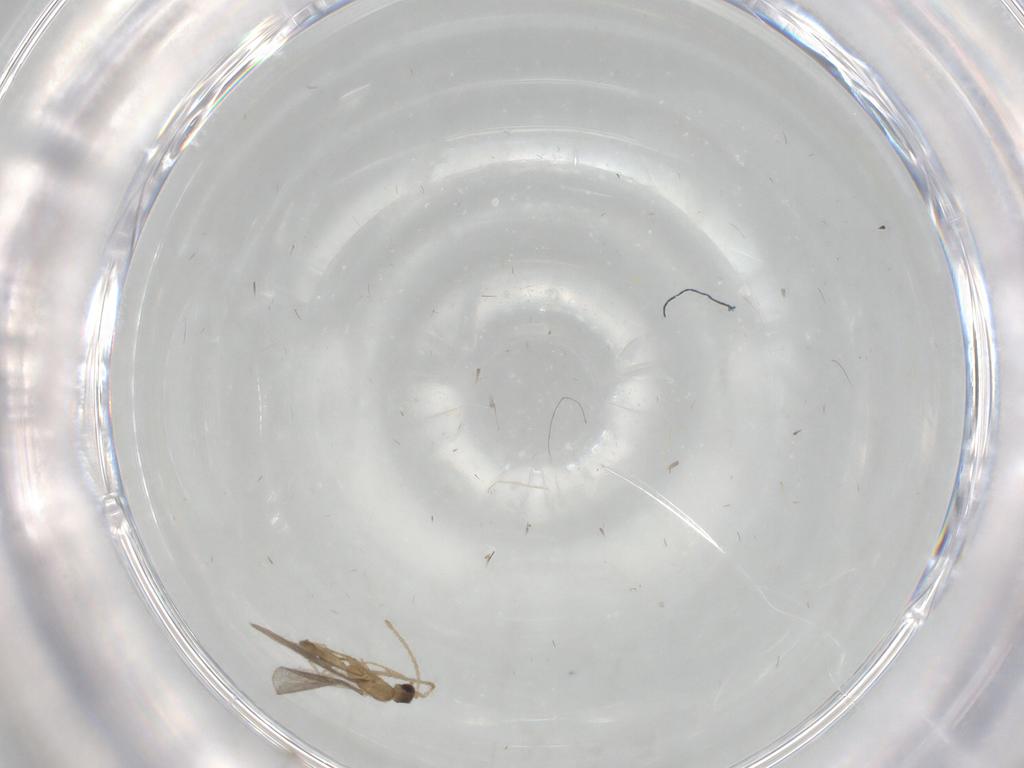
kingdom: Animalia
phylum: Arthropoda
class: Insecta
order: Hymenoptera
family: Formicidae
